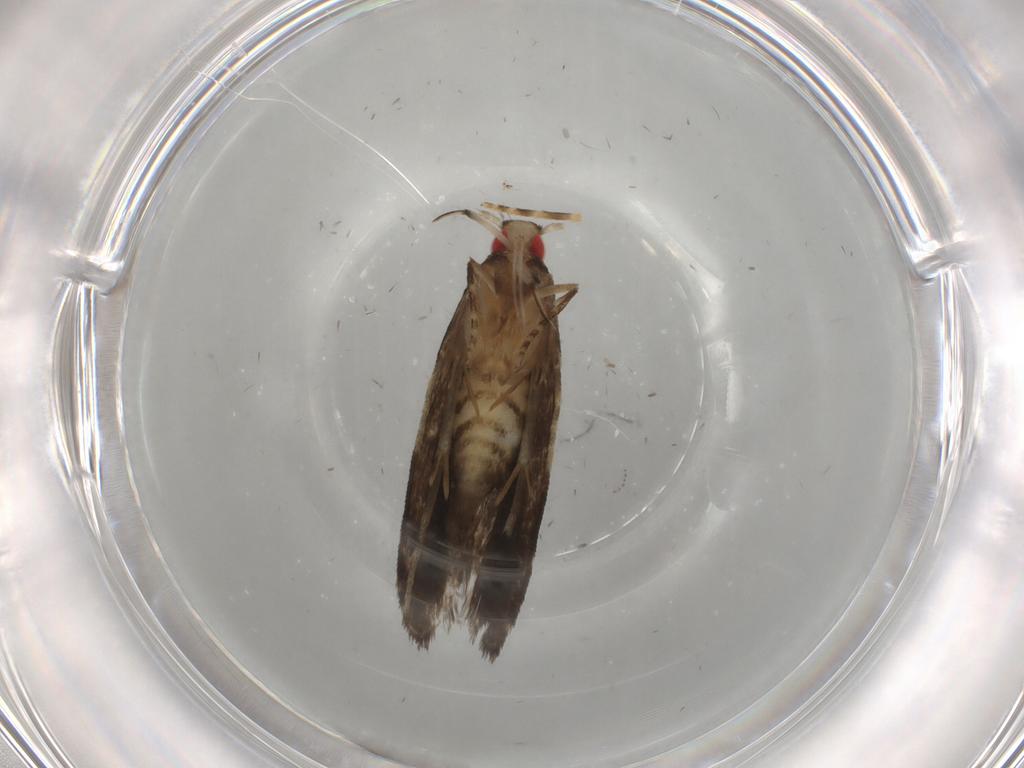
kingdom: Animalia
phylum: Arthropoda
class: Insecta
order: Lepidoptera
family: Gelechiidae
